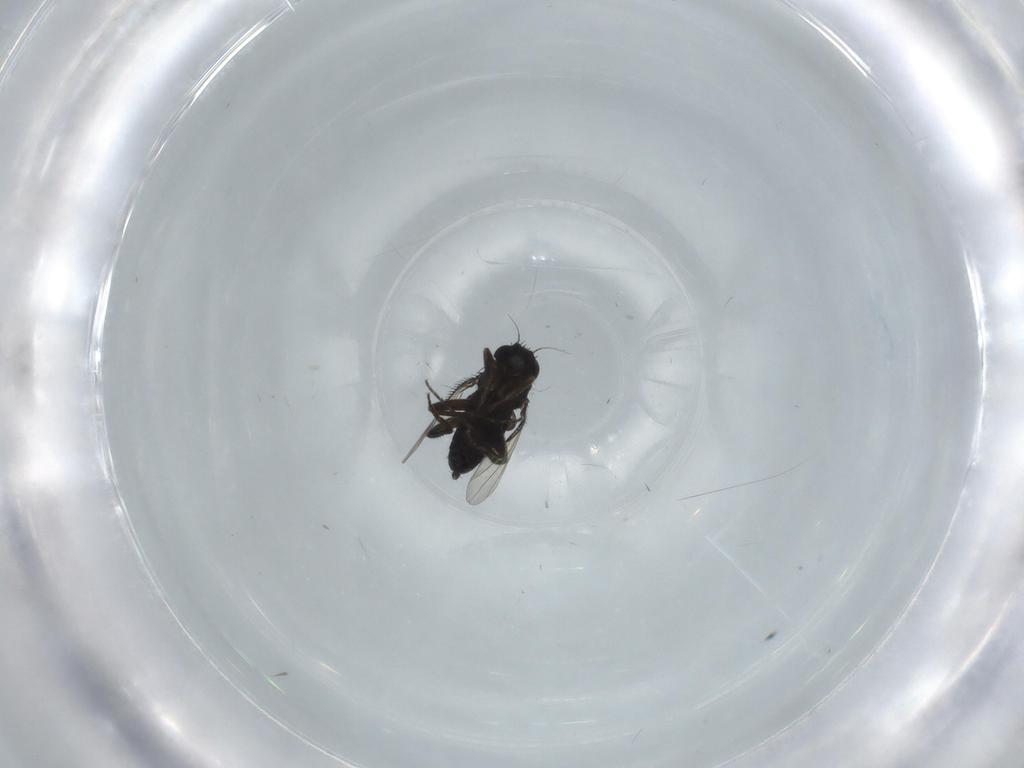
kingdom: Animalia
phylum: Arthropoda
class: Insecta
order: Diptera
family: Phoridae
